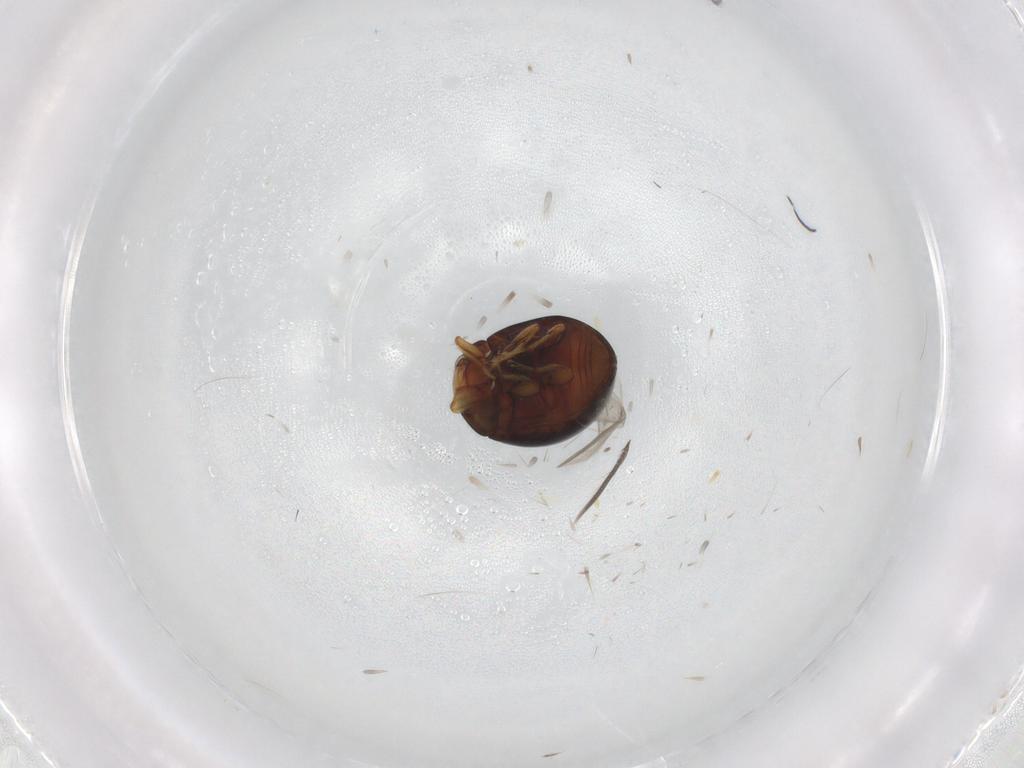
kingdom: Animalia
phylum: Arthropoda
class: Insecta
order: Coleoptera
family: Coccinellidae
